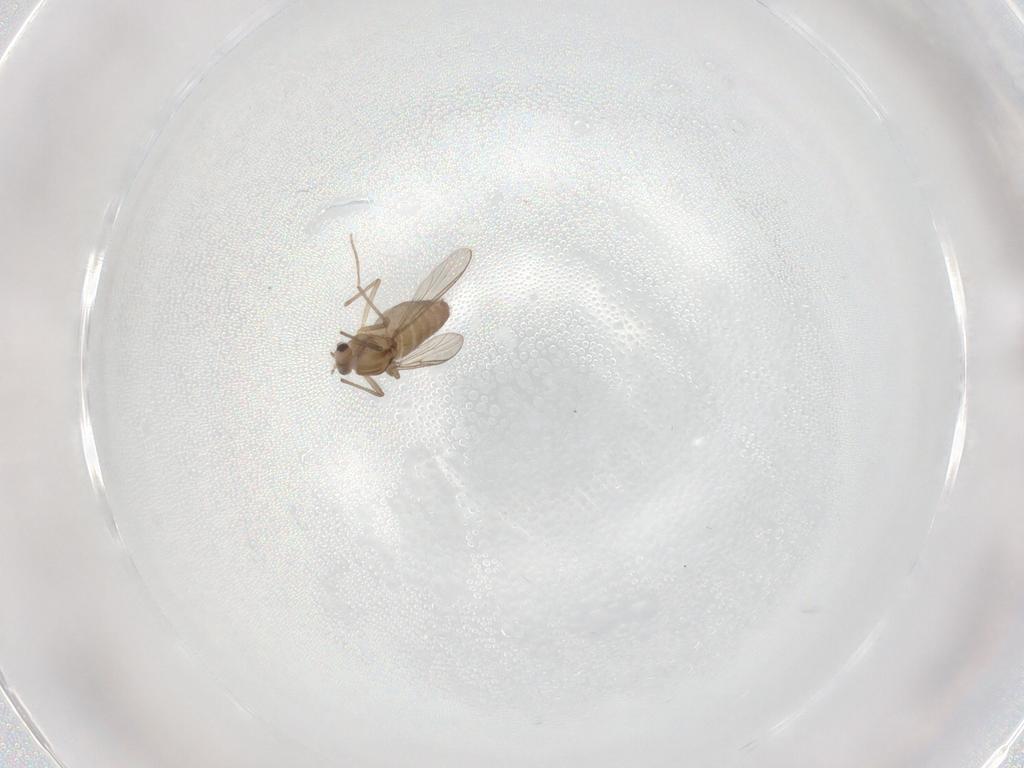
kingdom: Animalia
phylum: Arthropoda
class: Insecta
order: Diptera
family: Chironomidae
